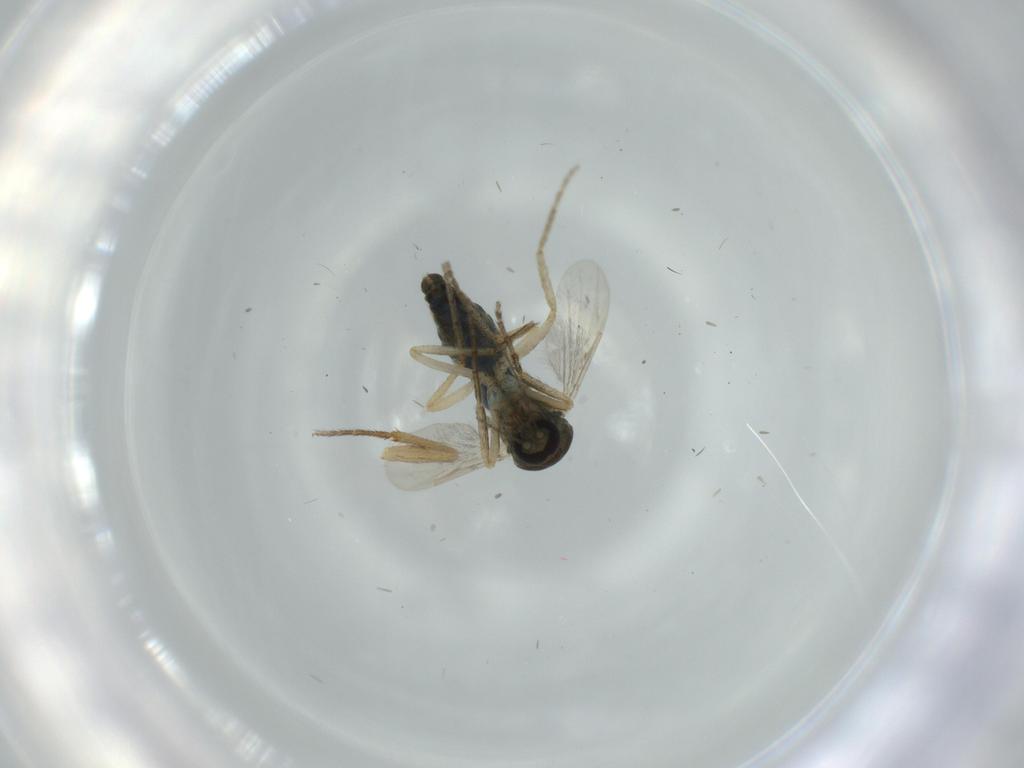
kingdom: Animalia
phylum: Arthropoda
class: Insecta
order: Diptera
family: Ceratopogonidae
